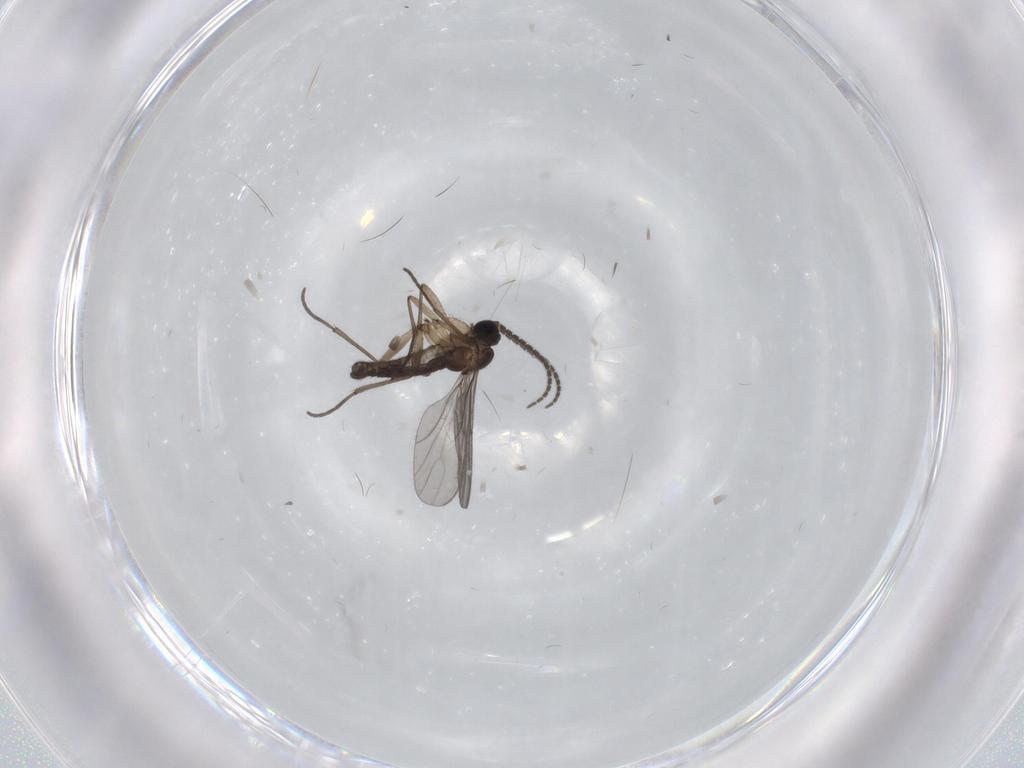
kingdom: Animalia
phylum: Arthropoda
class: Insecta
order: Diptera
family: Sciaridae
